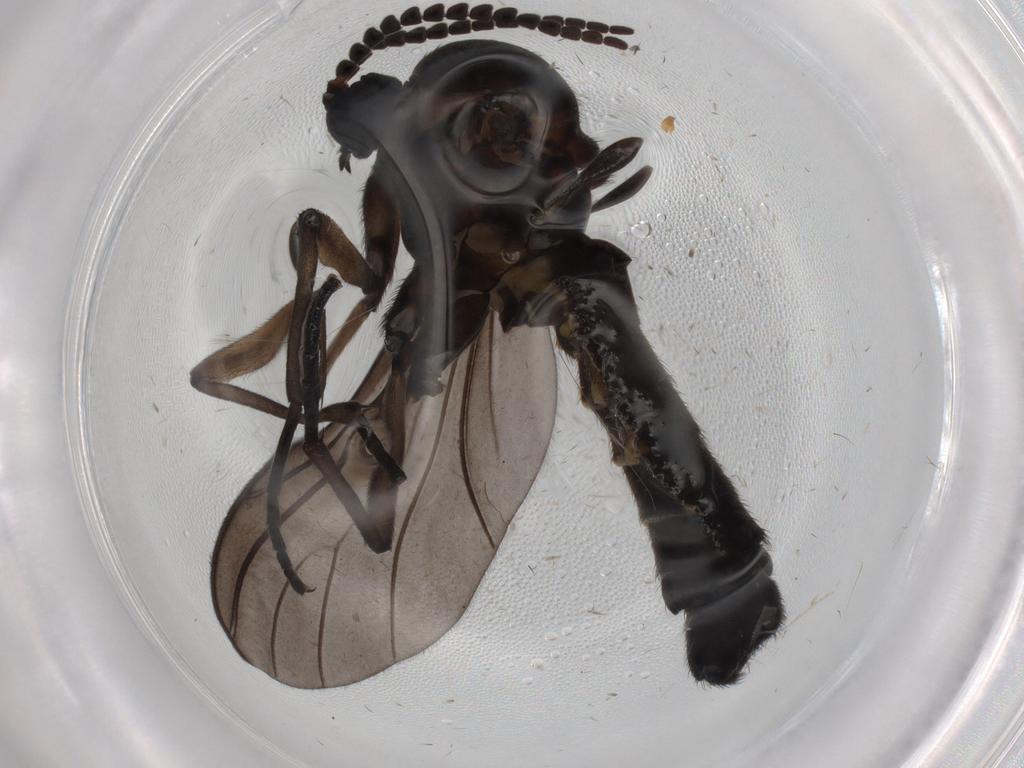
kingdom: Animalia
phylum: Arthropoda
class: Insecta
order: Diptera
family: Sciaridae
